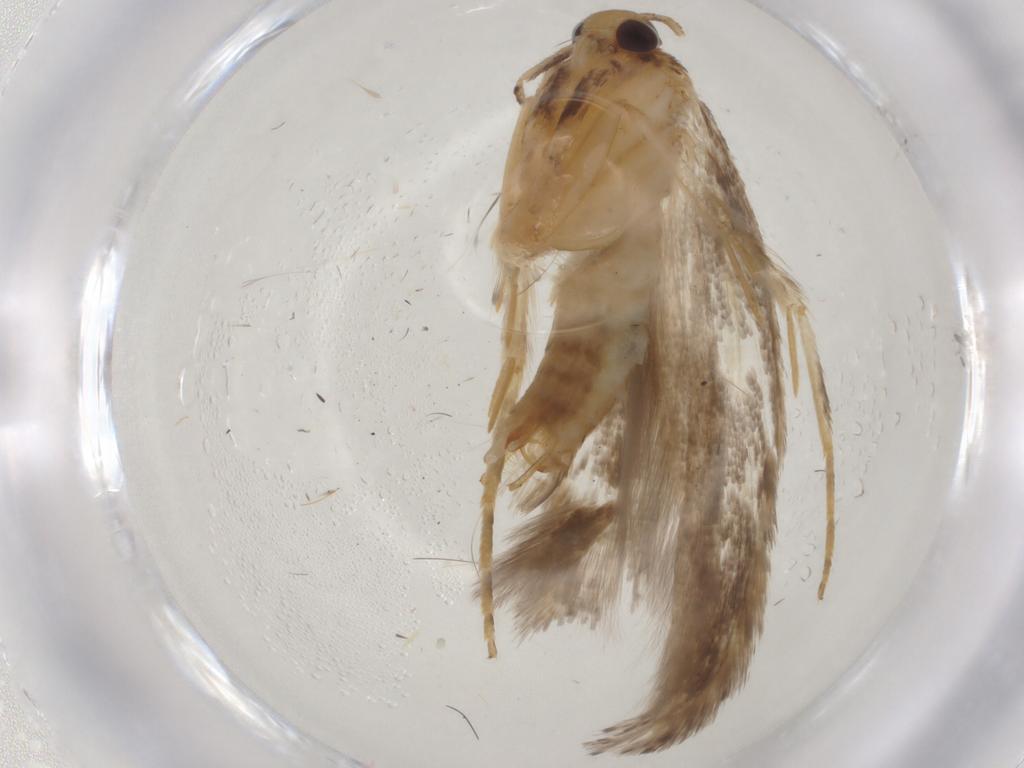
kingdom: Animalia
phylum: Arthropoda
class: Insecta
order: Lepidoptera
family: Gelechiidae
